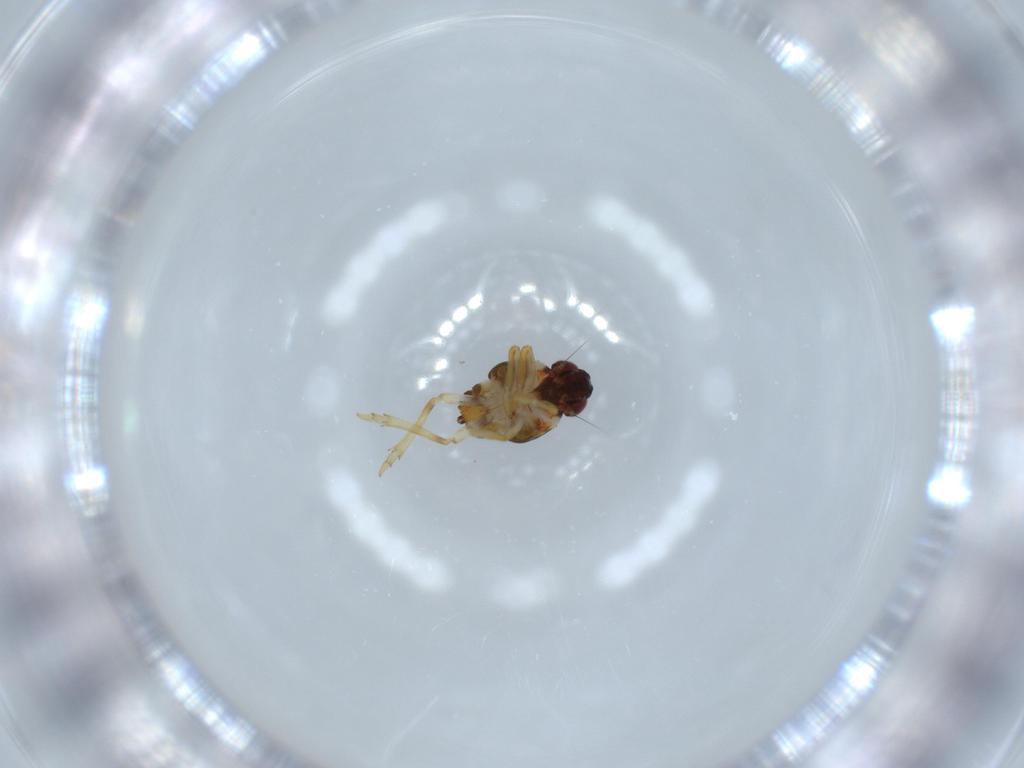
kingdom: Animalia
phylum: Arthropoda
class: Insecta
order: Hemiptera
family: Issidae
